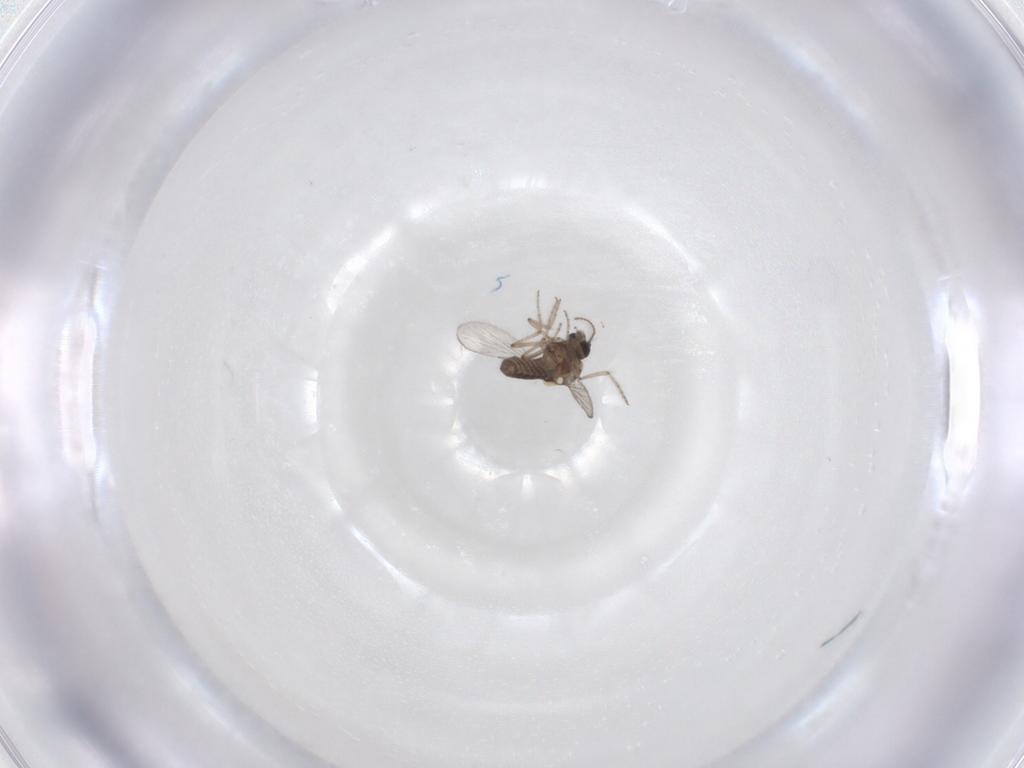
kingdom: Animalia
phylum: Arthropoda
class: Insecta
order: Diptera
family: Ceratopogonidae
